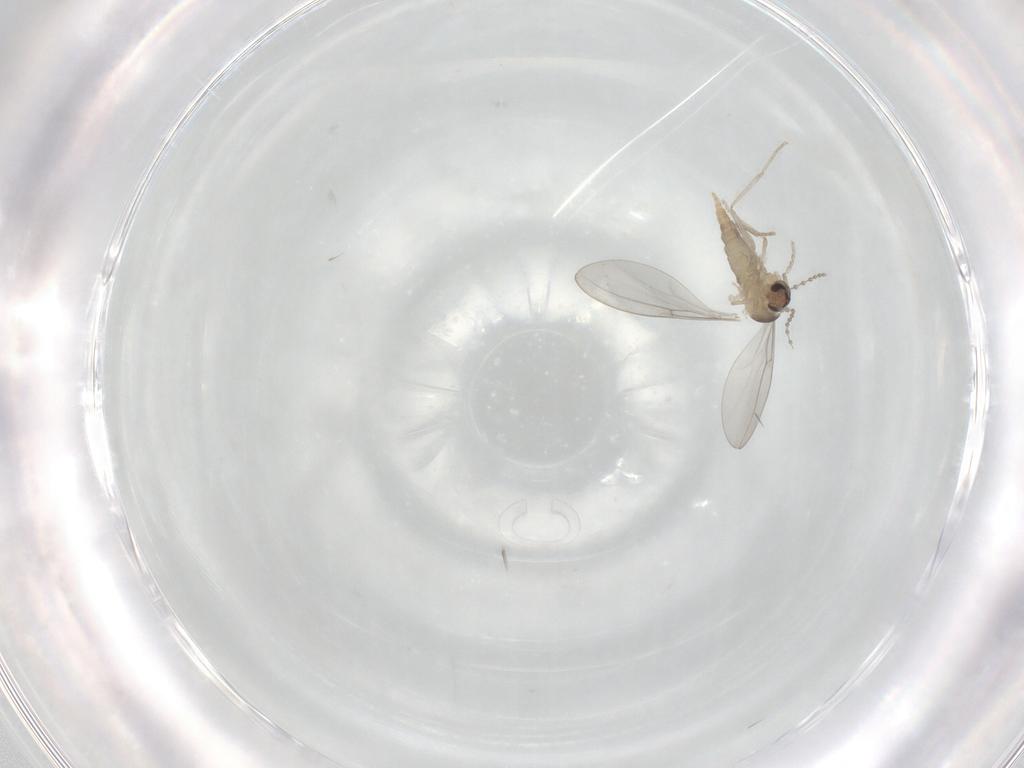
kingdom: Animalia
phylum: Arthropoda
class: Insecta
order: Diptera
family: Cecidomyiidae
